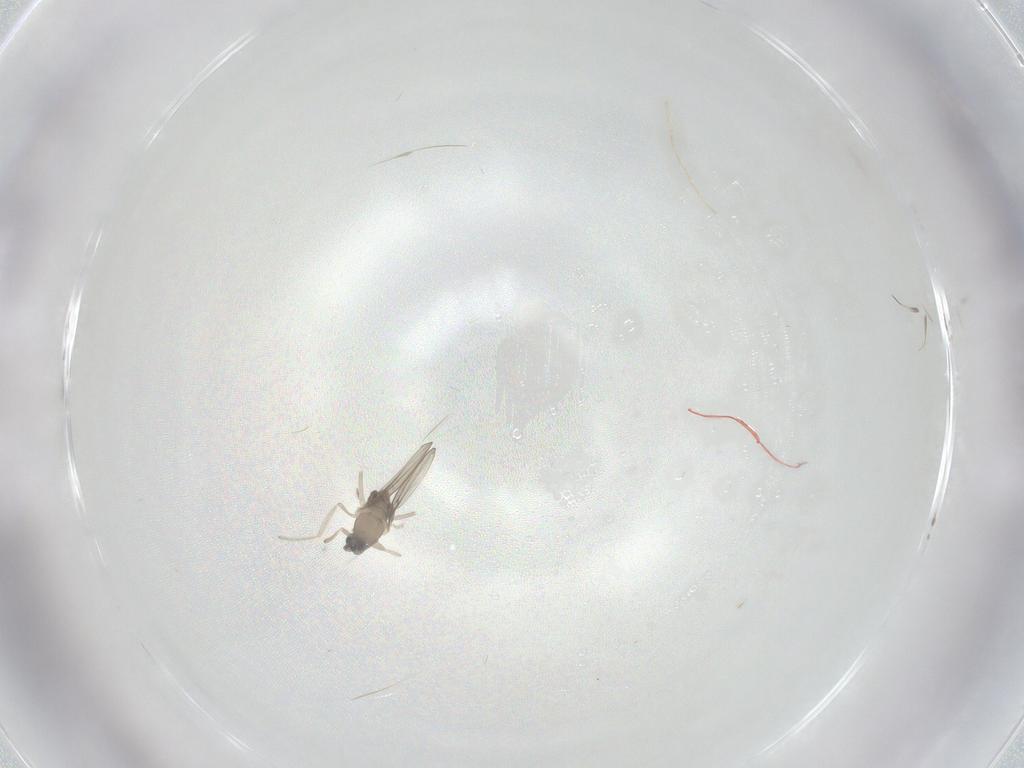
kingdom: Animalia
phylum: Arthropoda
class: Insecta
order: Diptera
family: Cecidomyiidae
